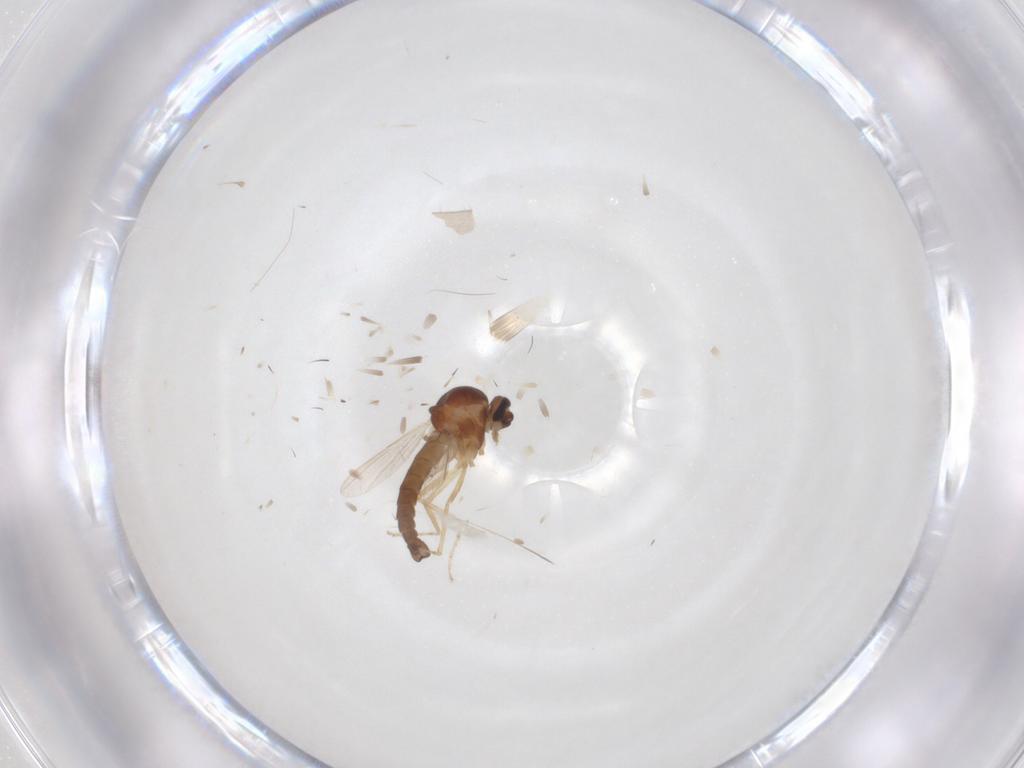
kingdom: Animalia
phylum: Arthropoda
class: Insecta
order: Diptera
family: Ceratopogonidae
